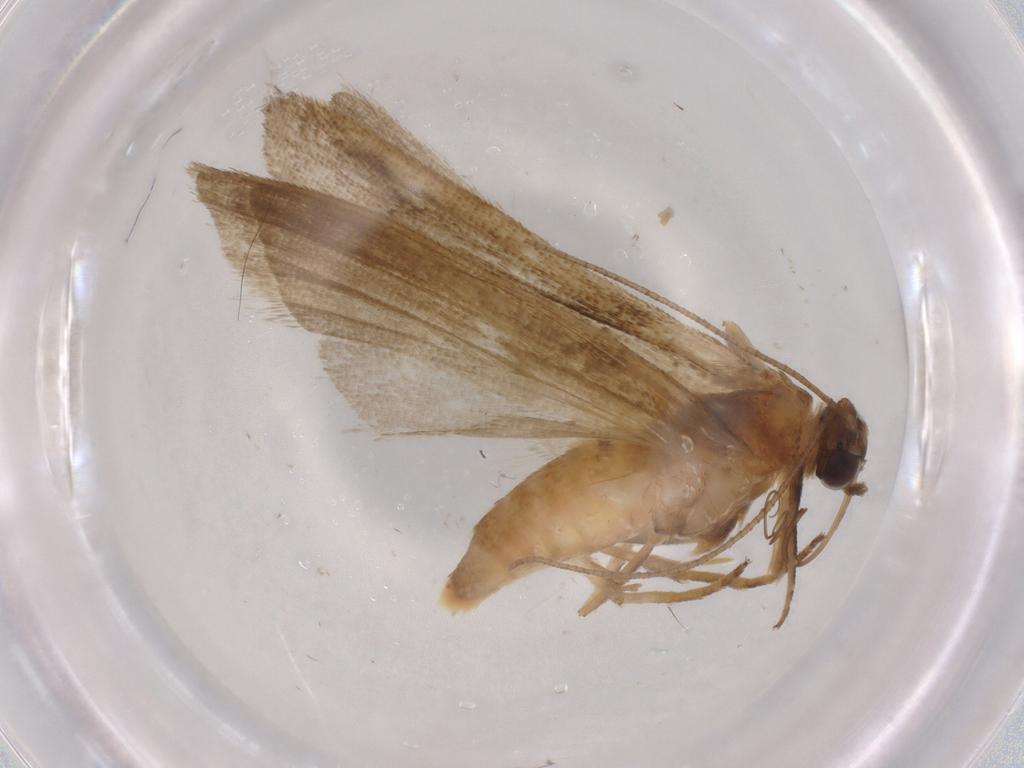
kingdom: Animalia
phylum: Arthropoda
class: Insecta
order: Lepidoptera
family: Noctuidae
